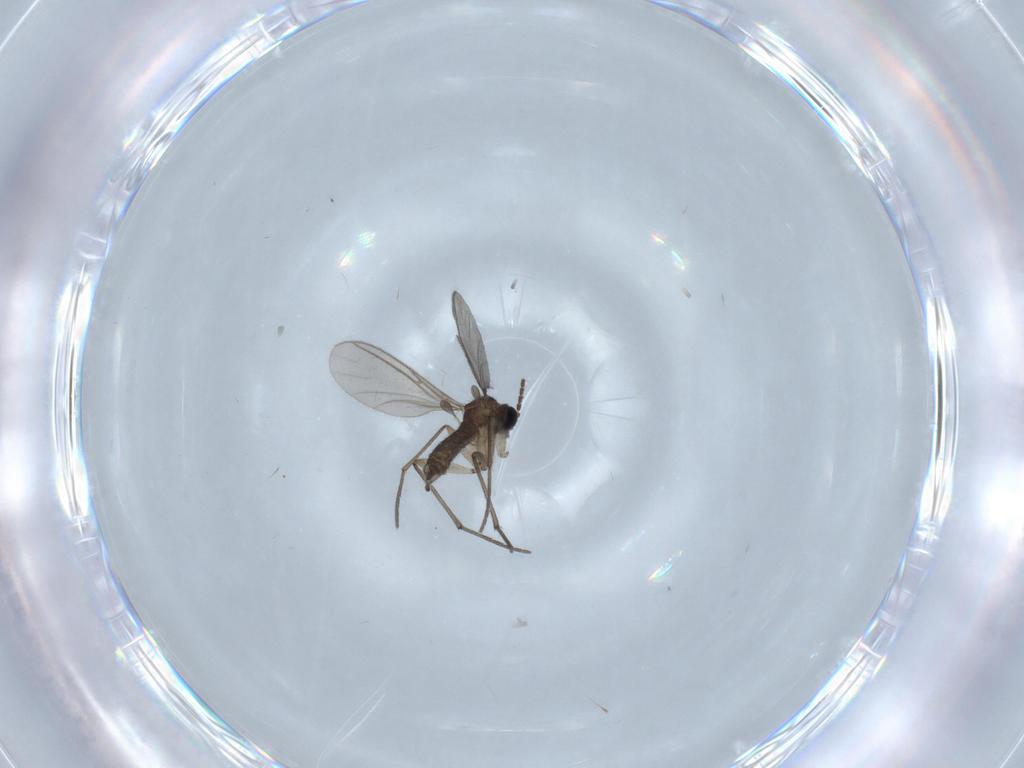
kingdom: Animalia
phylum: Arthropoda
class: Insecta
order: Diptera
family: Sciaridae
